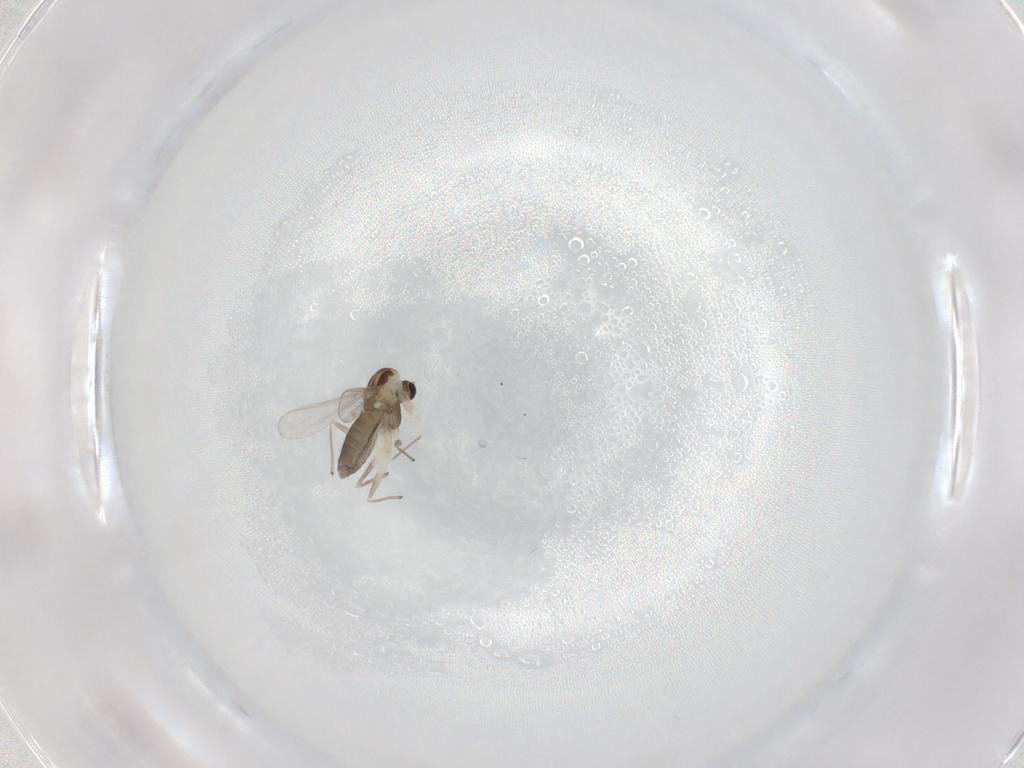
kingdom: Animalia
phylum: Arthropoda
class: Insecta
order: Diptera
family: Chironomidae
